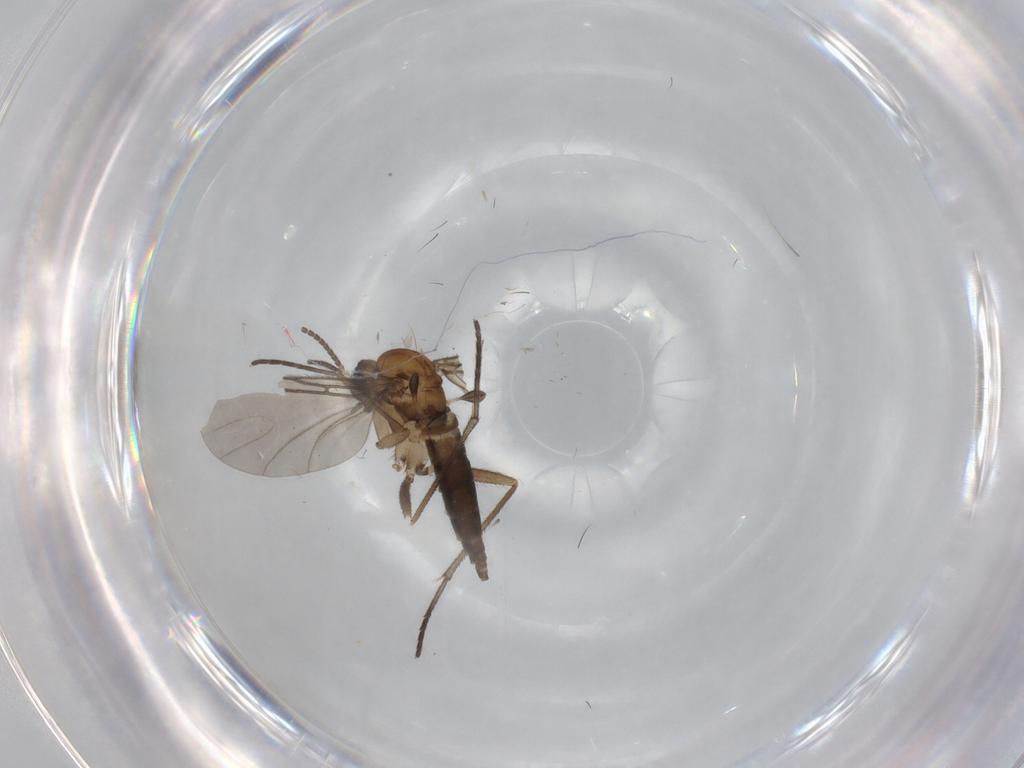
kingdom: Animalia
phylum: Arthropoda
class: Insecta
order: Diptera
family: Sciaridae
